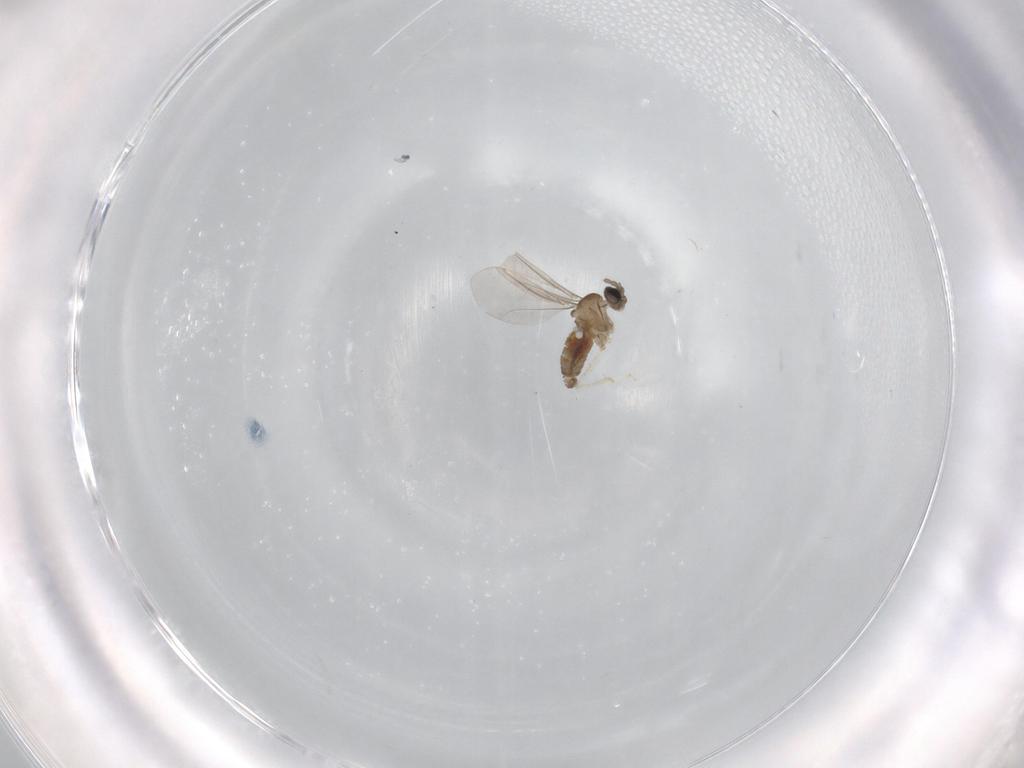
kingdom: Animalia
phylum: Arthropoda
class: Insecta
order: Diptera
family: Cecidomyiidae
